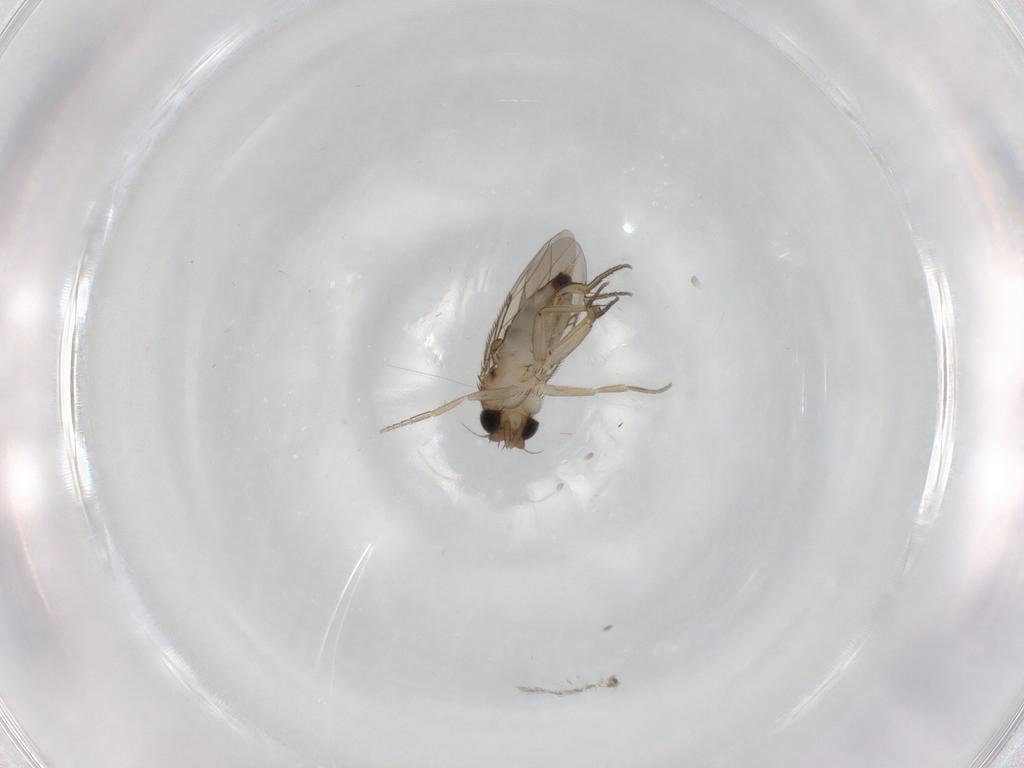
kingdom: Animalia
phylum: Arthropoda
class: Insecta
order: Diptera
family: Phoridae
